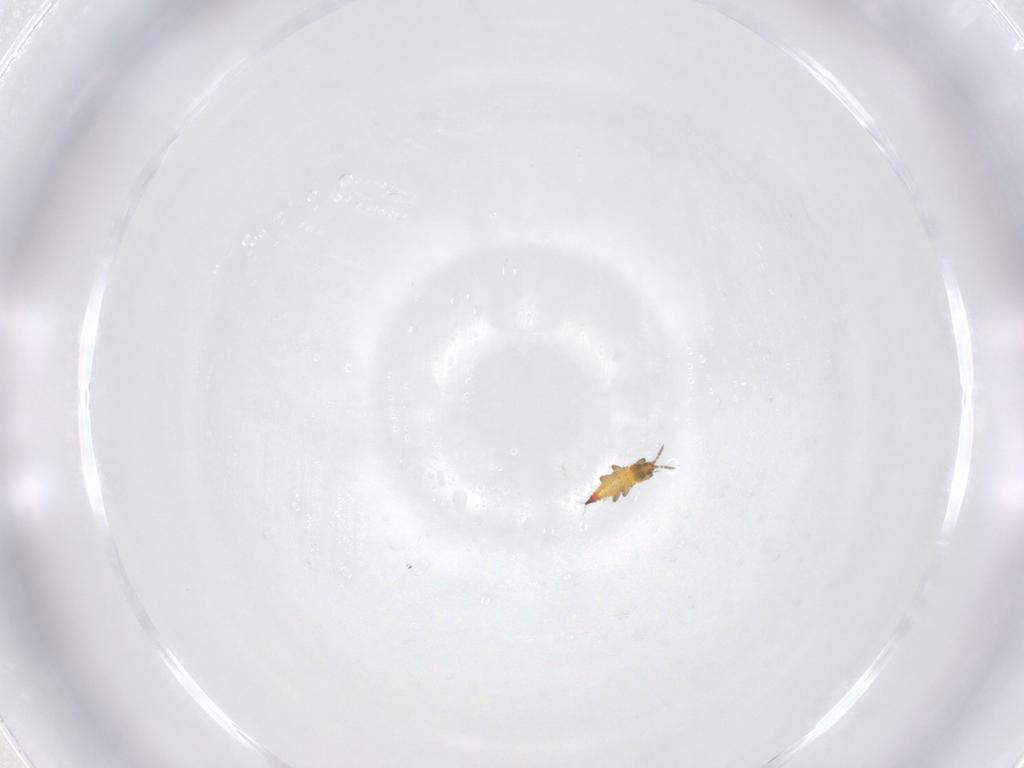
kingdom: Animalia
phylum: Arthropoda
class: Insecta
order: Thysanoptera
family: Phlaeothripidae
